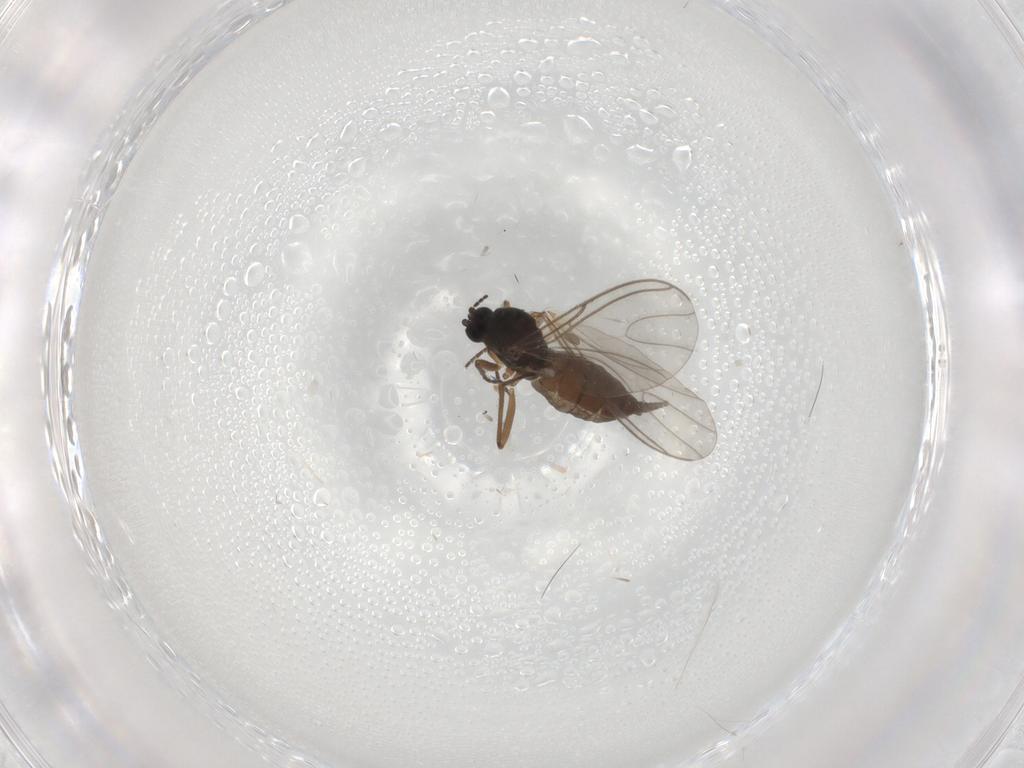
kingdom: Animalia
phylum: Arthropoda
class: Insecta
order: Diptera
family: Sciaridae
